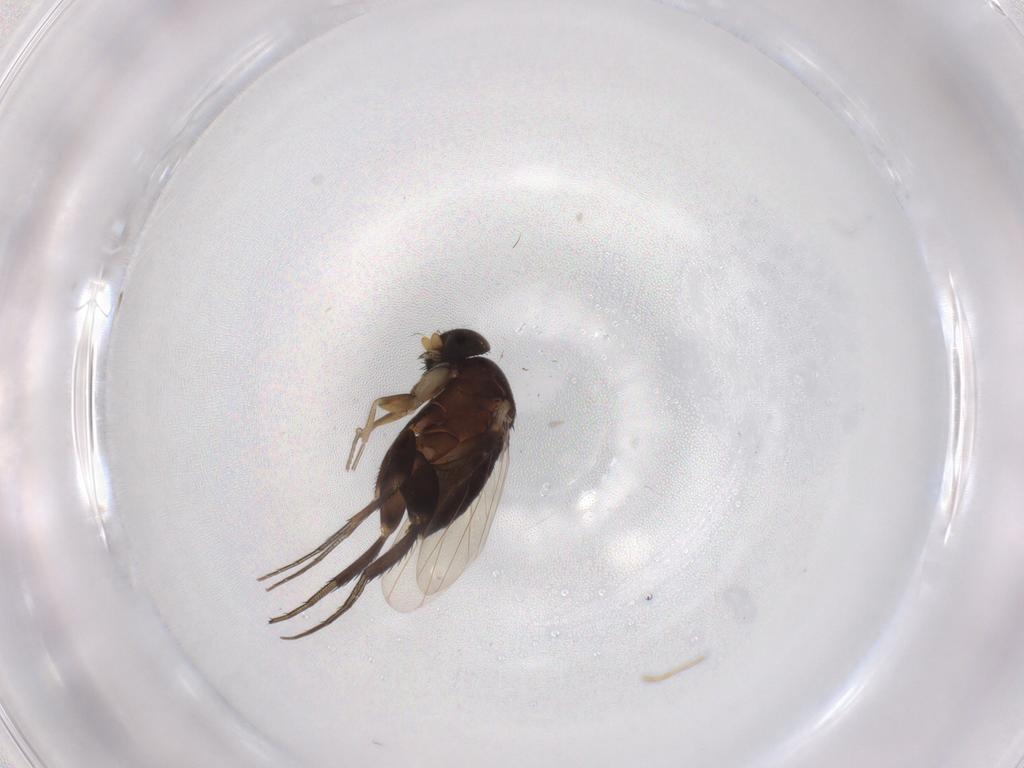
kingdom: Animalia
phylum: Arthropoda
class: Insecta
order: Diptera
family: Phoridae
